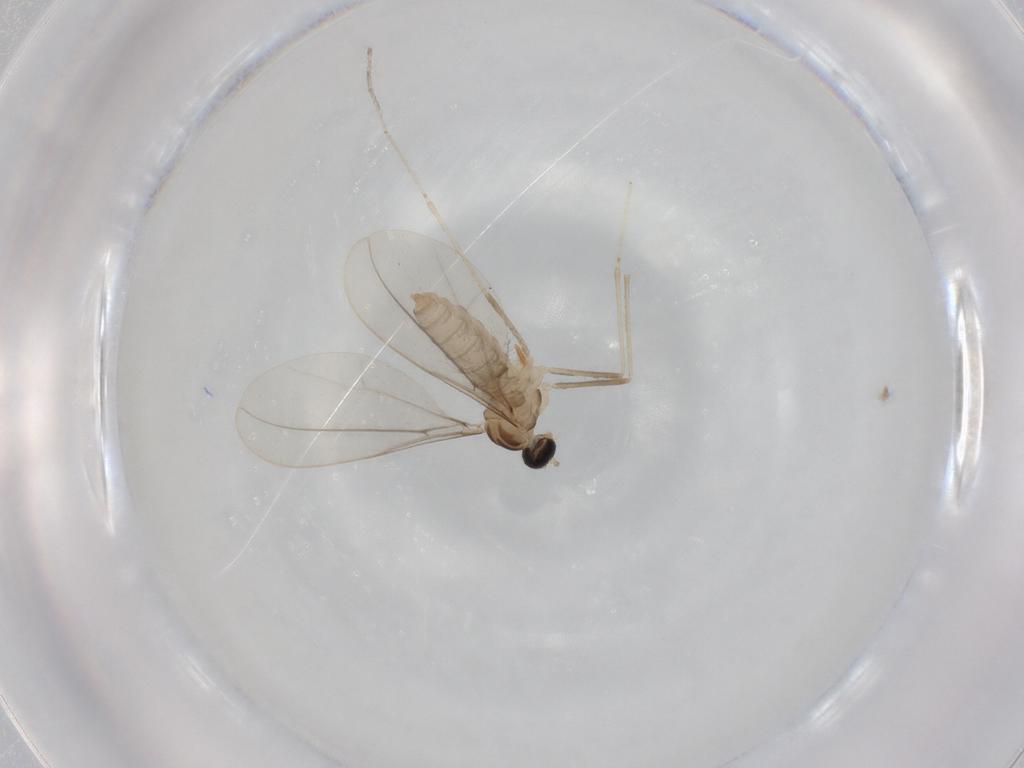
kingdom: Animalia
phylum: Arthropoda
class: Insecta
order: Diptera
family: Cecidomyiidae
